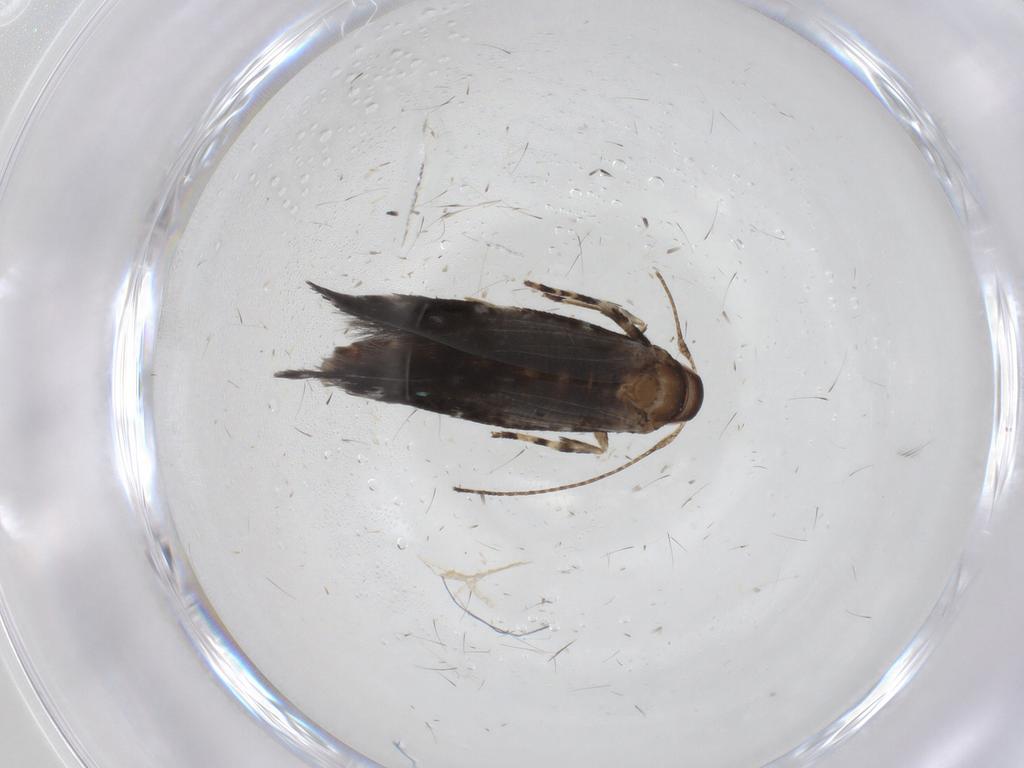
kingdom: Animalia
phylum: Arthropoda
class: Insecta
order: Lepidoptera
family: Cosmopterigidae
